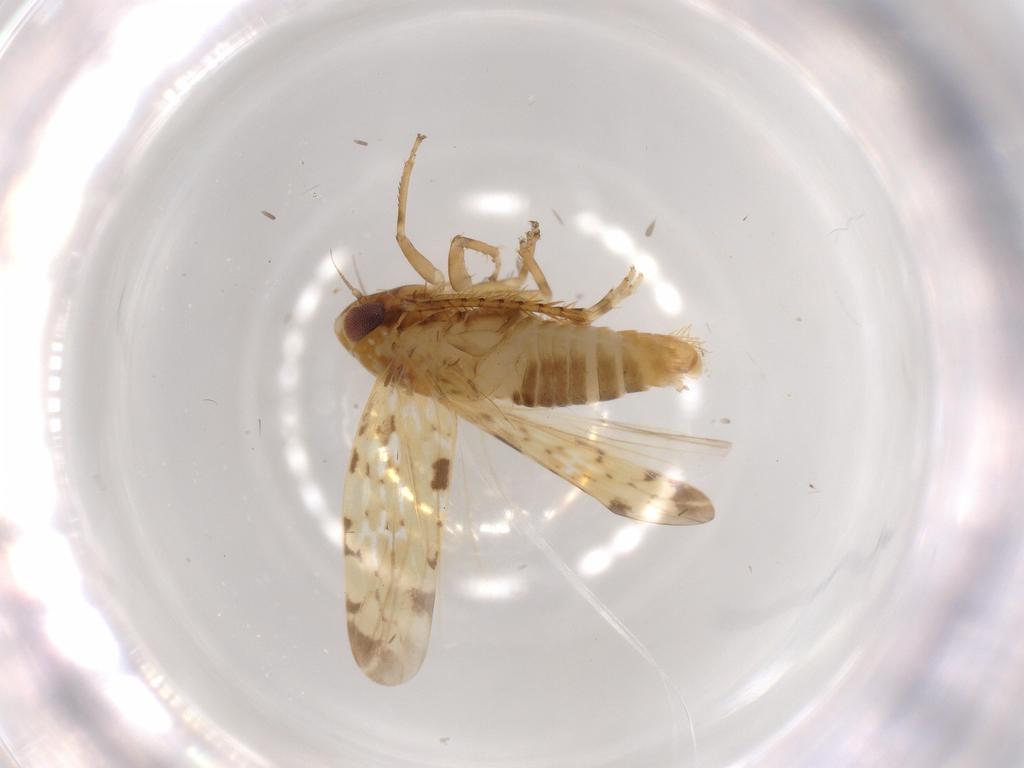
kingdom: Animalia
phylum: Arthropoda
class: Insecta
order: Hemiptera
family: Cicadellidae
